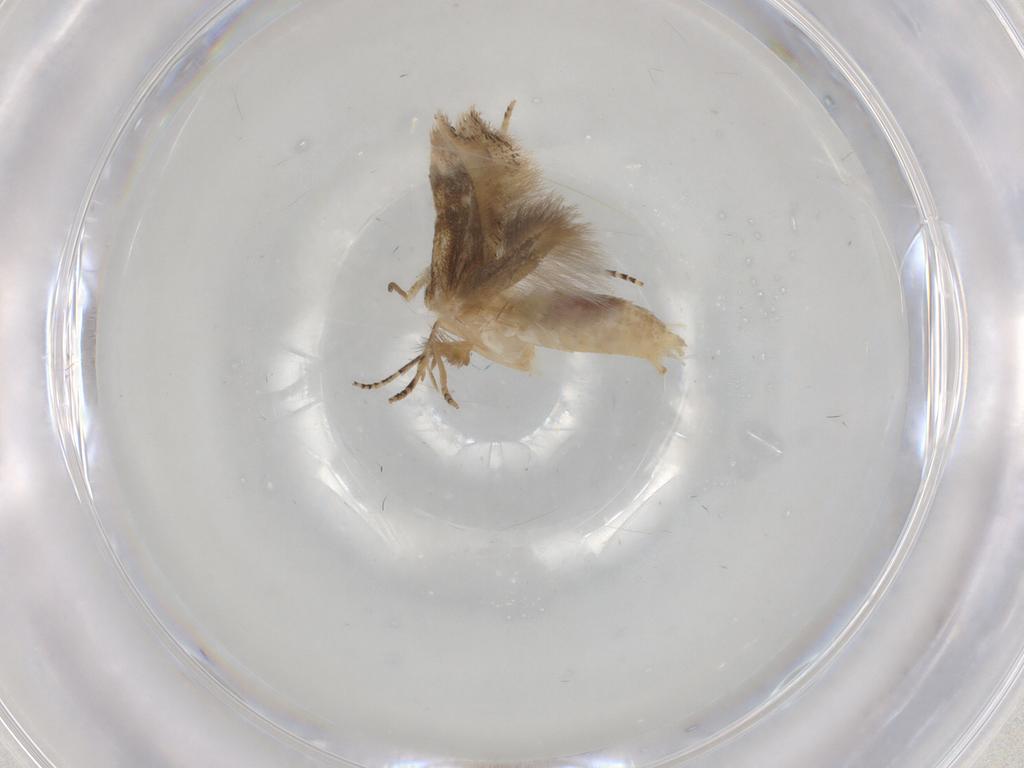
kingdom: Animalia
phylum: Arthropoda
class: Insecta
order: Lepidoptera
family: Bucculatricidae
